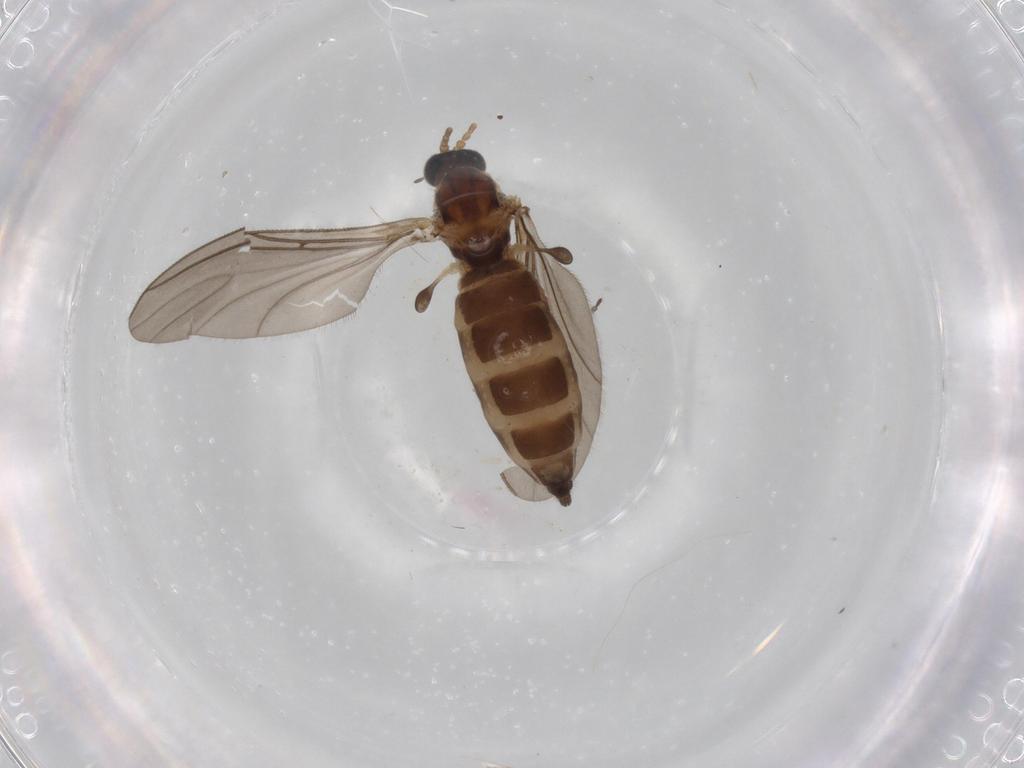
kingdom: Animalia
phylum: Arthropoda
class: Insecta
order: Diptera
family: Sciaridae
